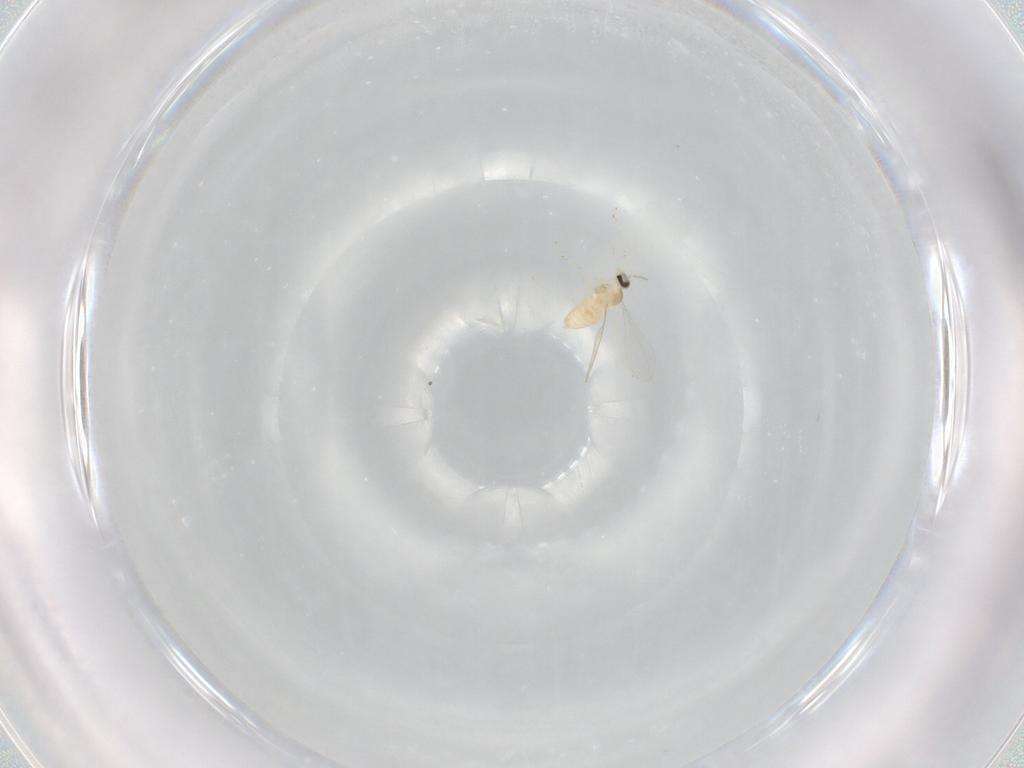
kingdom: Animalia
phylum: Arthropoda
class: Insecta
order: Diptera
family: Cecidomyiidae
